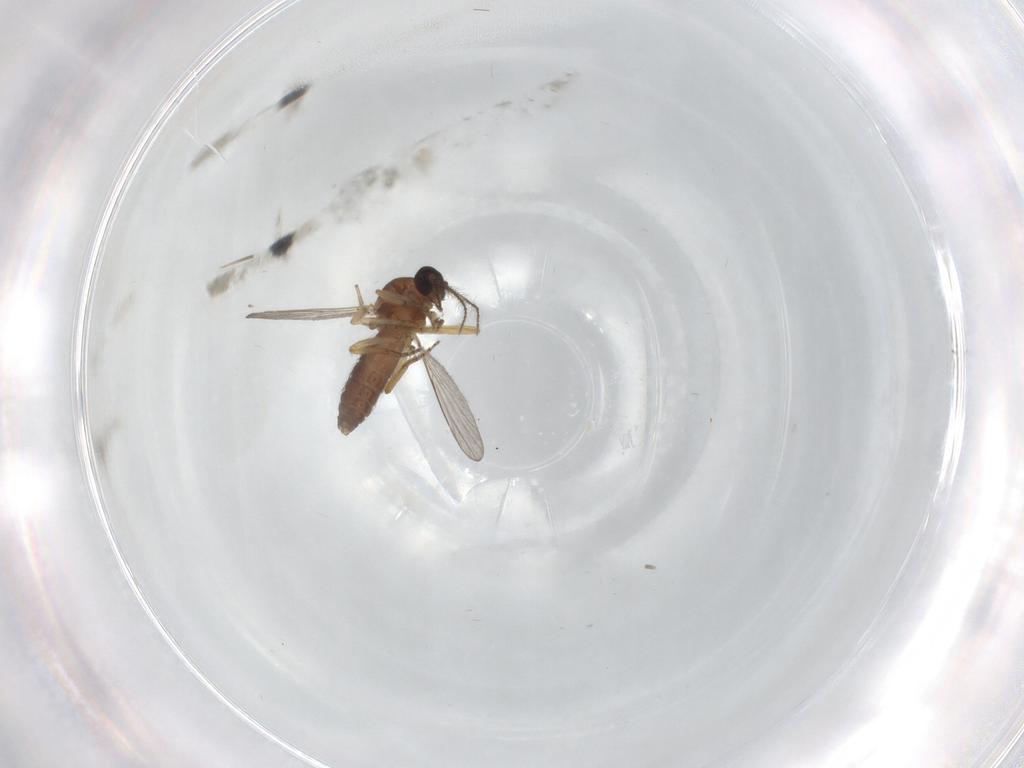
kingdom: Animalia
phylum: Arthropoda
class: Insecta
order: Diptera
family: Ceratopogonidae
